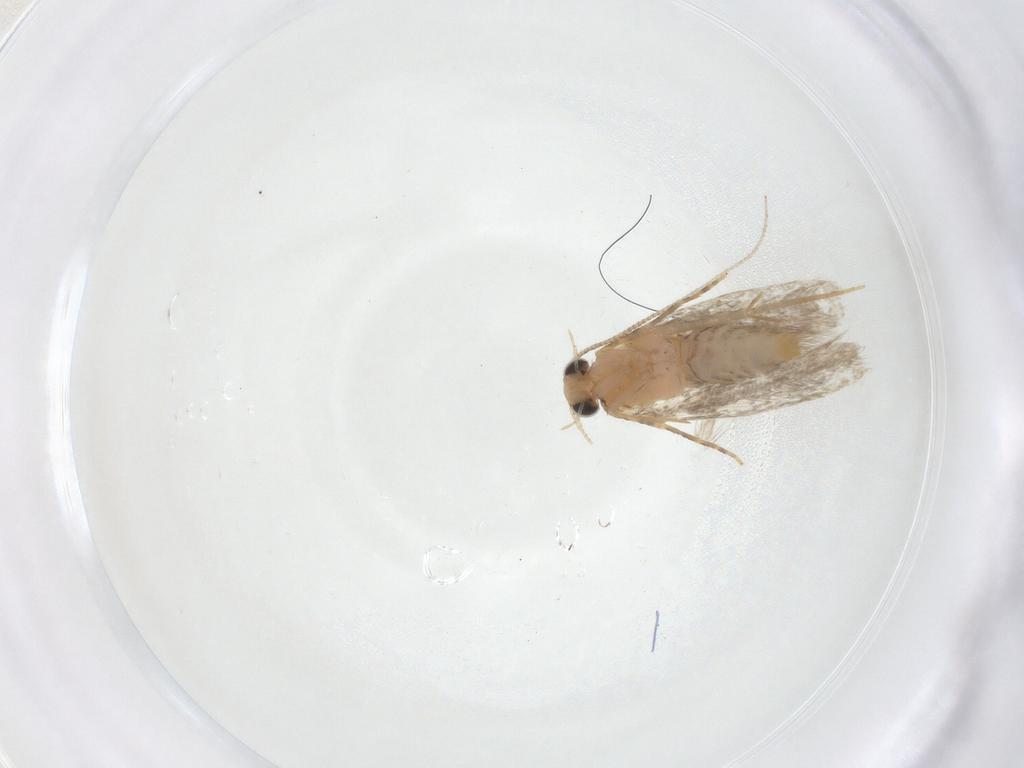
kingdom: Animalia
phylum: Arthropoda
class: Insecta
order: Lepidoptera
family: Tineidae
